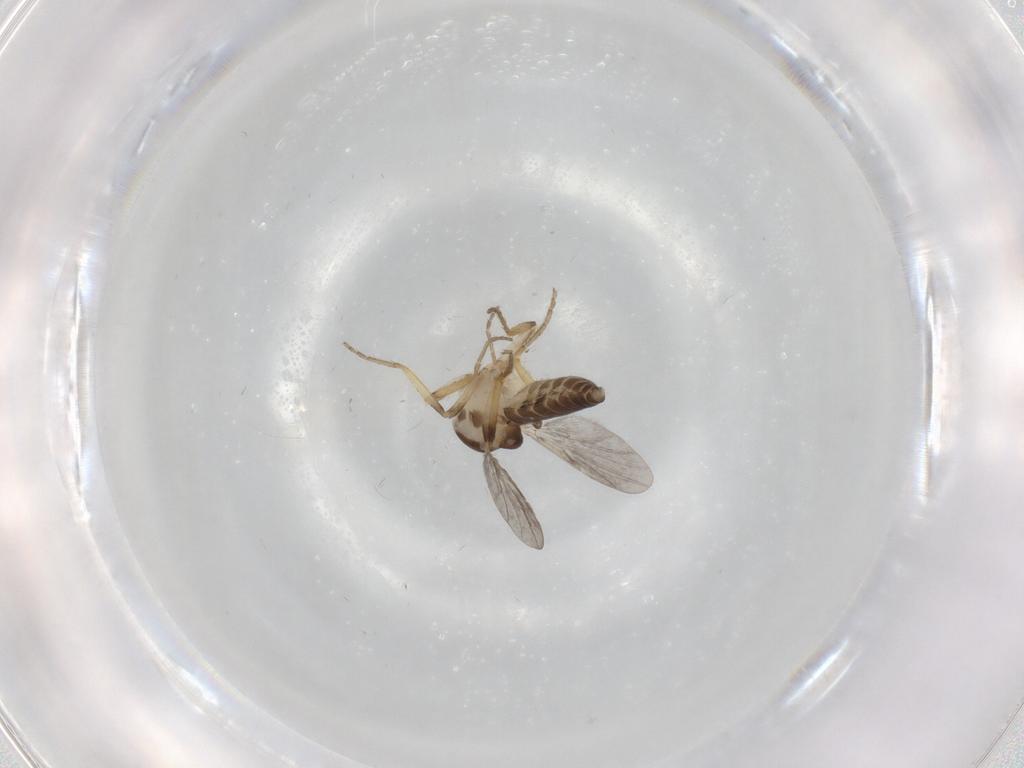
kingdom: Animalia
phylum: Arthropoda
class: Insecta
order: Diptera
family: Ceratopogonidae
